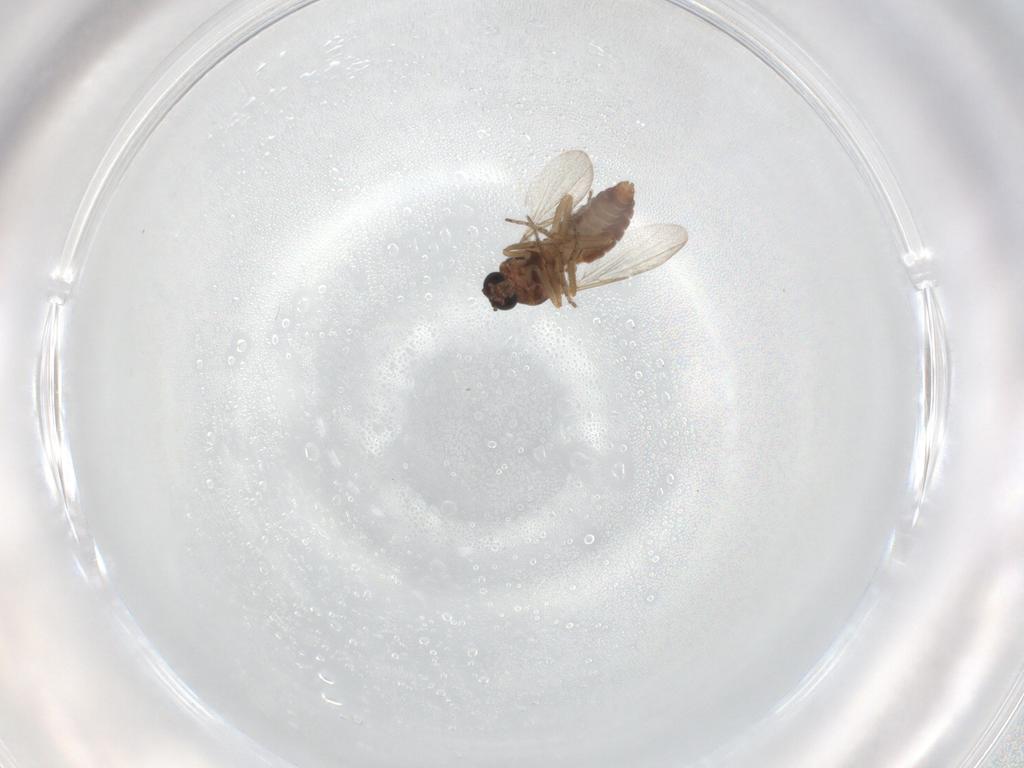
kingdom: Animalia
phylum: Arthropoda
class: Insecta
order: Diptera
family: Ceratopogonidae
